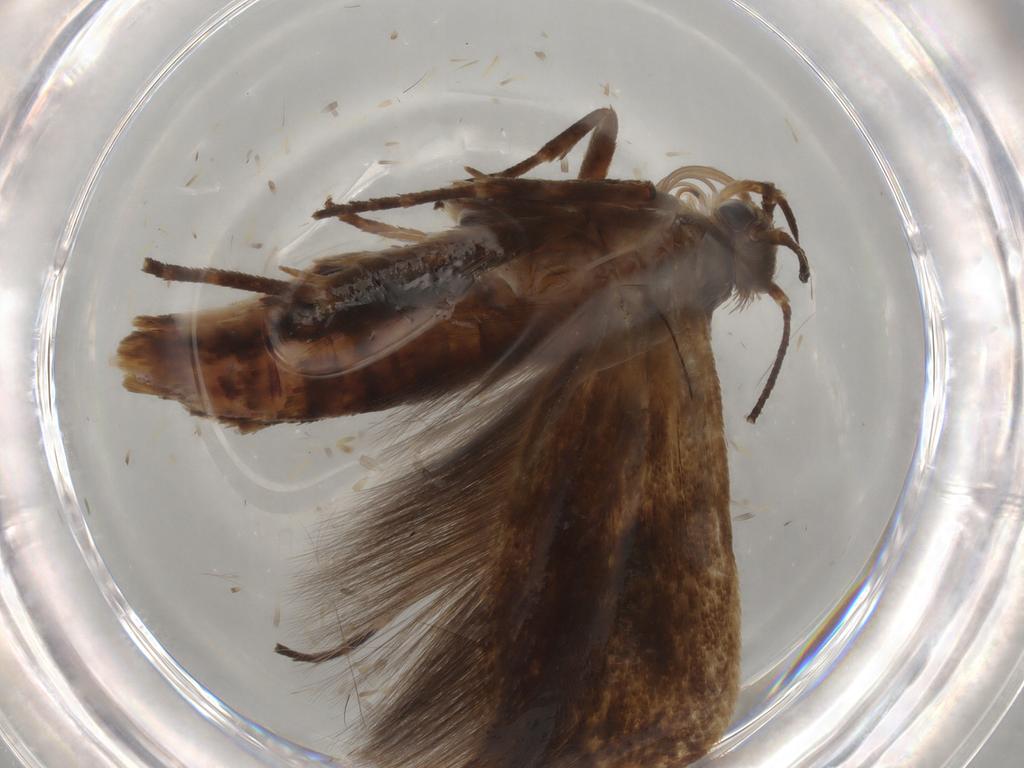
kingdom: Animalia
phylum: Arthropoda
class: Insecta
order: Lepidoptera
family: Scythrididae
